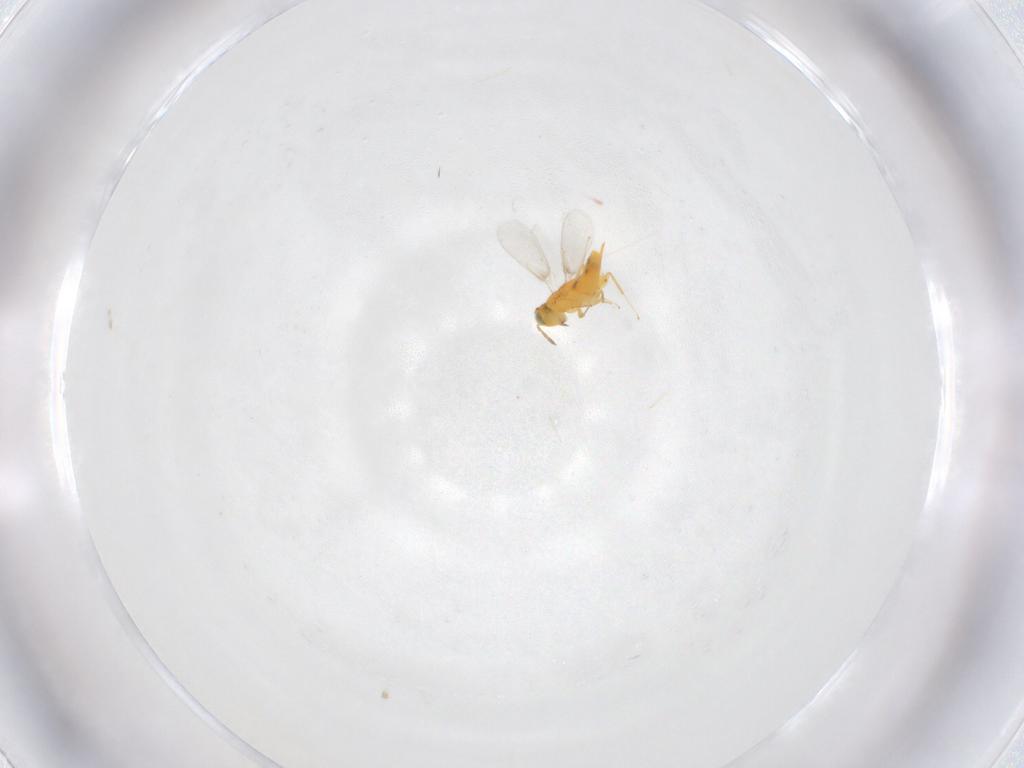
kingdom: Animalia
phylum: Arthropoda
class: Insecta
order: Hymenoptera
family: Aphelinidae
